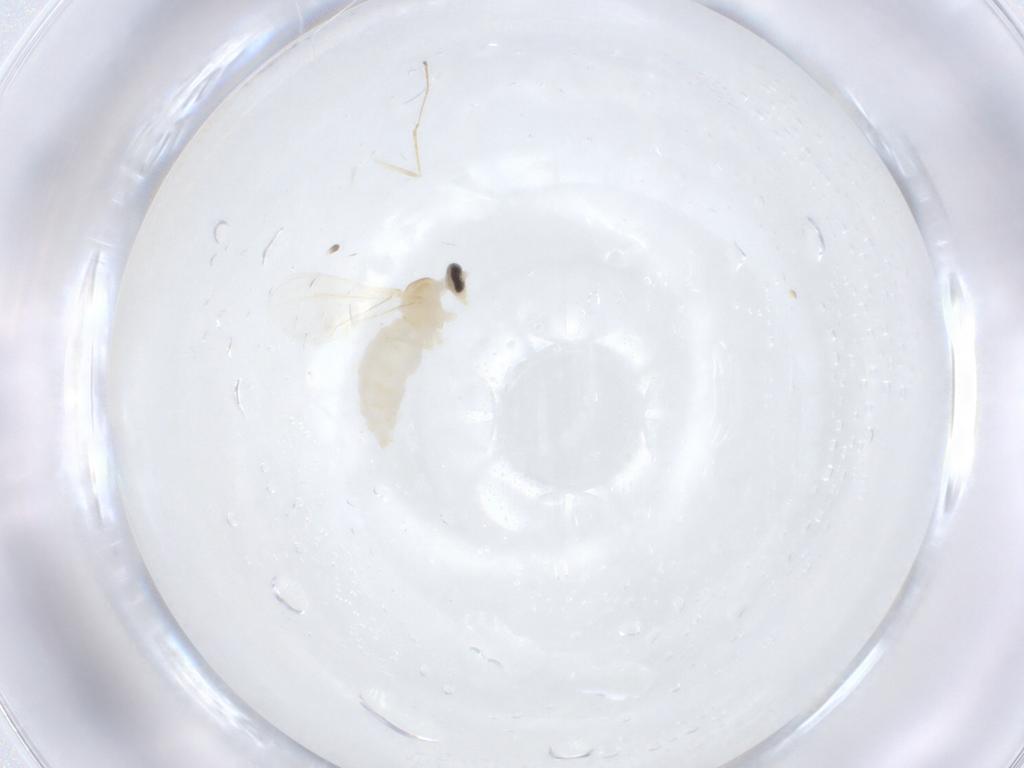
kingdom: Animalia
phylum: Arthropoda
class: Insecta
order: Diptera
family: Cecidomyiidae
